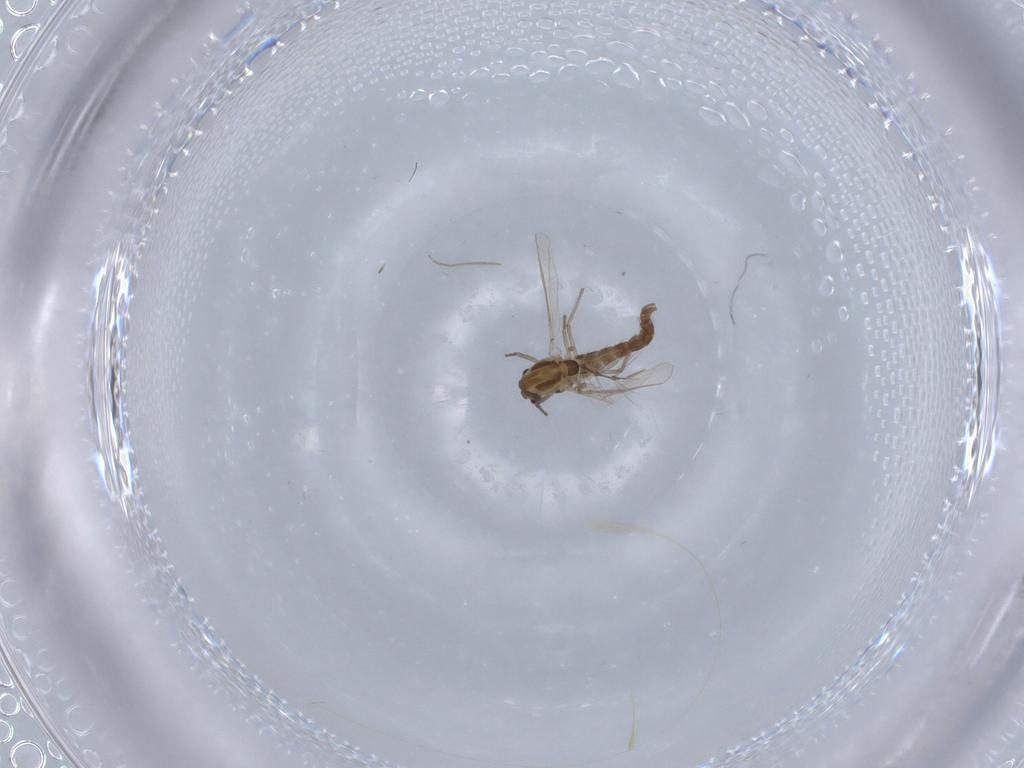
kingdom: Animalia
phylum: Arthropoda
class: Insecta
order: Diptera
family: Chironomidae
